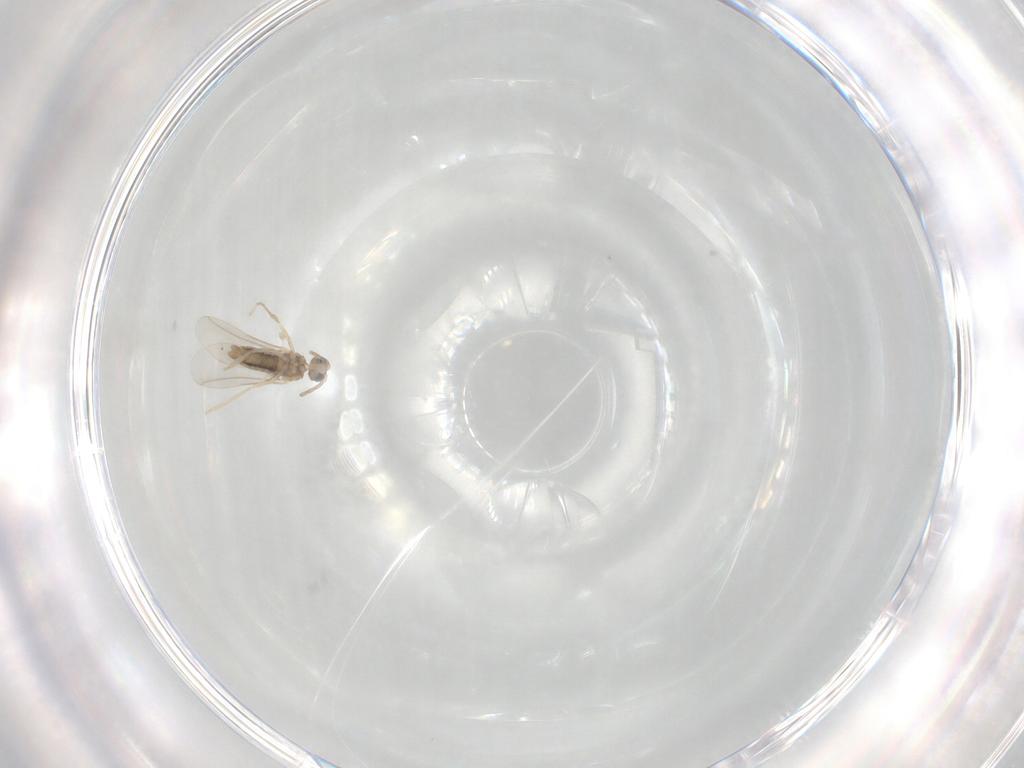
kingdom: Animalia
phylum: Arthropoda
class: Insecta
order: Diptera
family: Cecidomyiidae
